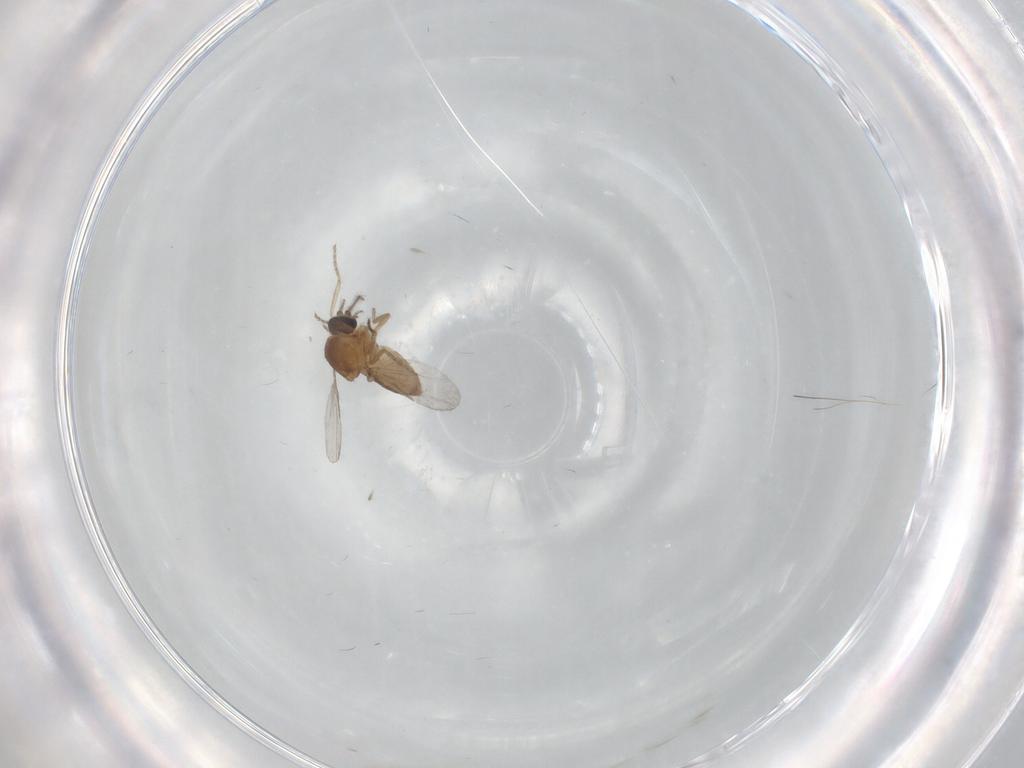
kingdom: Animalia
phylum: Arthropoda
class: Insecta
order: Diptera
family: Ceratopogonidae
